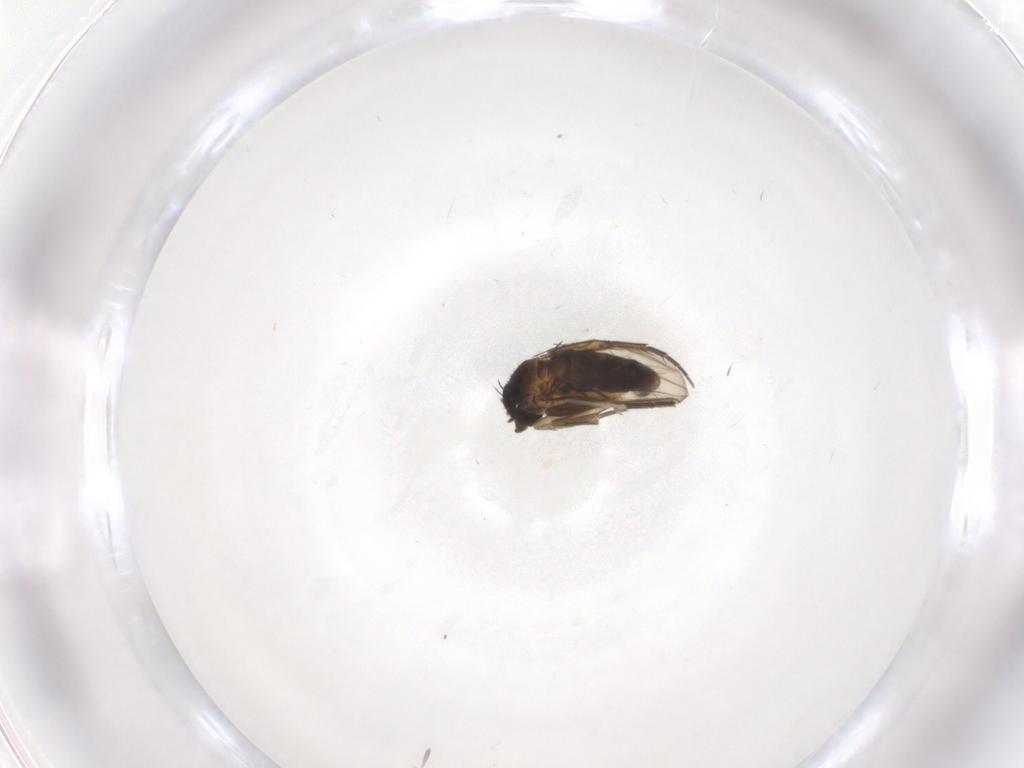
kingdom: Animalia
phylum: Arthropoda
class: Insecta
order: Diptera
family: Phoridae
